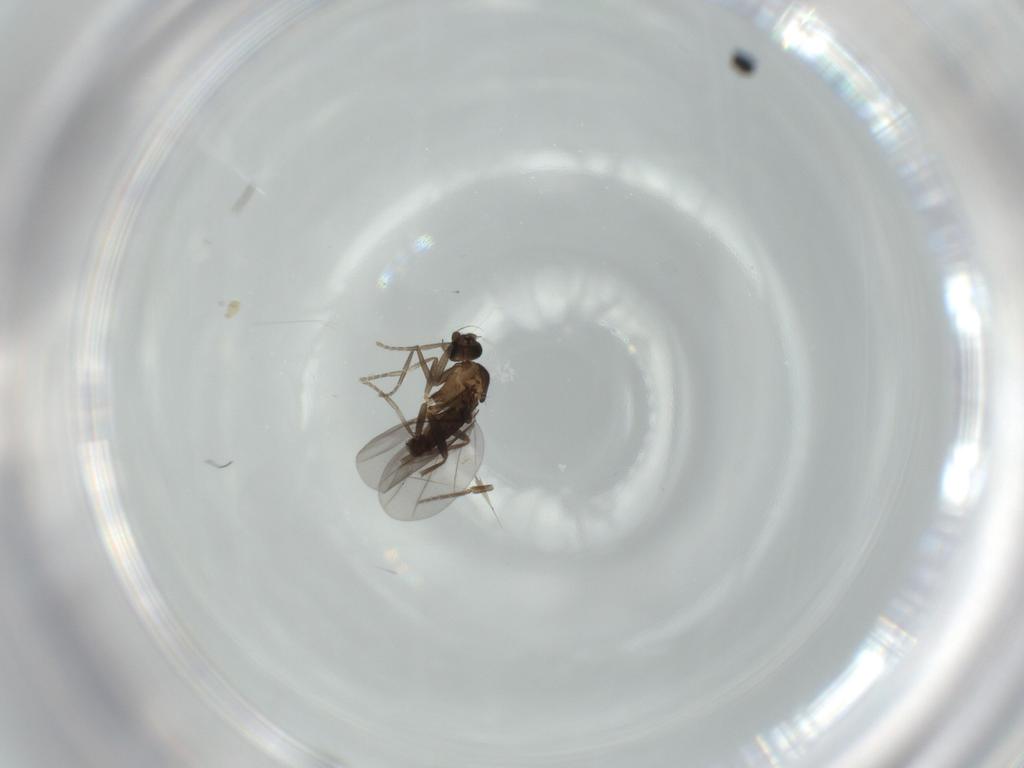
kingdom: Animalia
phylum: Arthropoda
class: Insecta
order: Diptera
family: Phoridae
